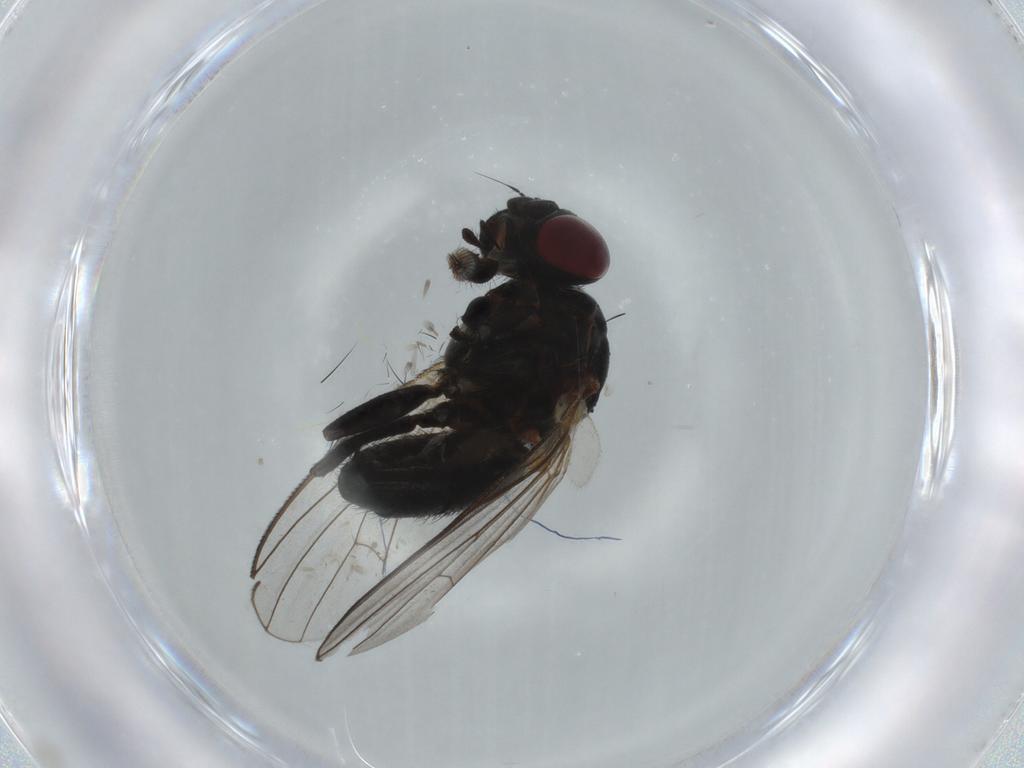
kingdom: Animalia
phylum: Arthropoda
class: Insecta
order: Diptera
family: Fannia
